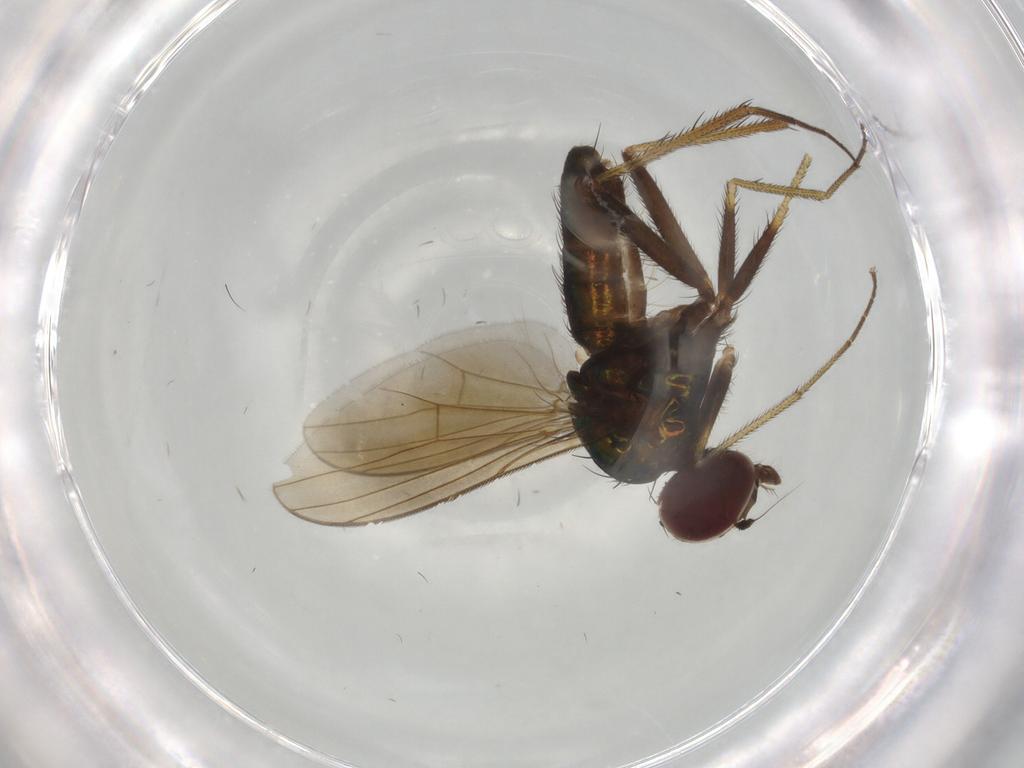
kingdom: Animalia
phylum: Arthropoda
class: Insecta
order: Diptera
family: Dolichopodidae
